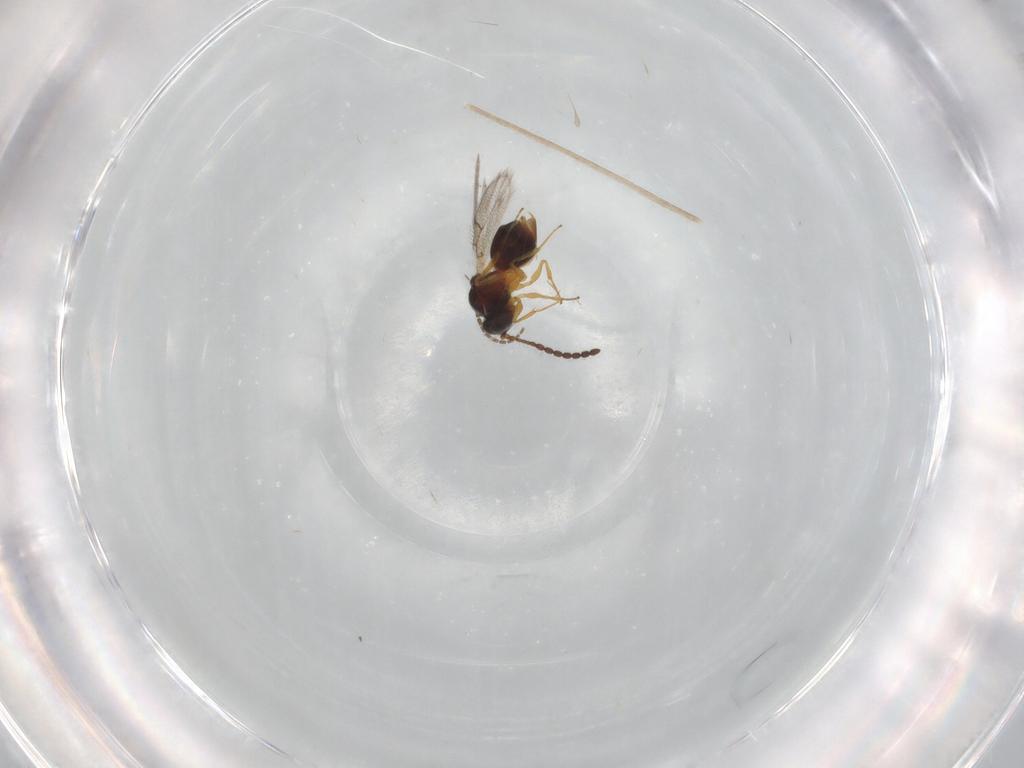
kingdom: Animalia
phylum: Arthropoda
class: Insecta
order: Hymenoptera
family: Figitidae
